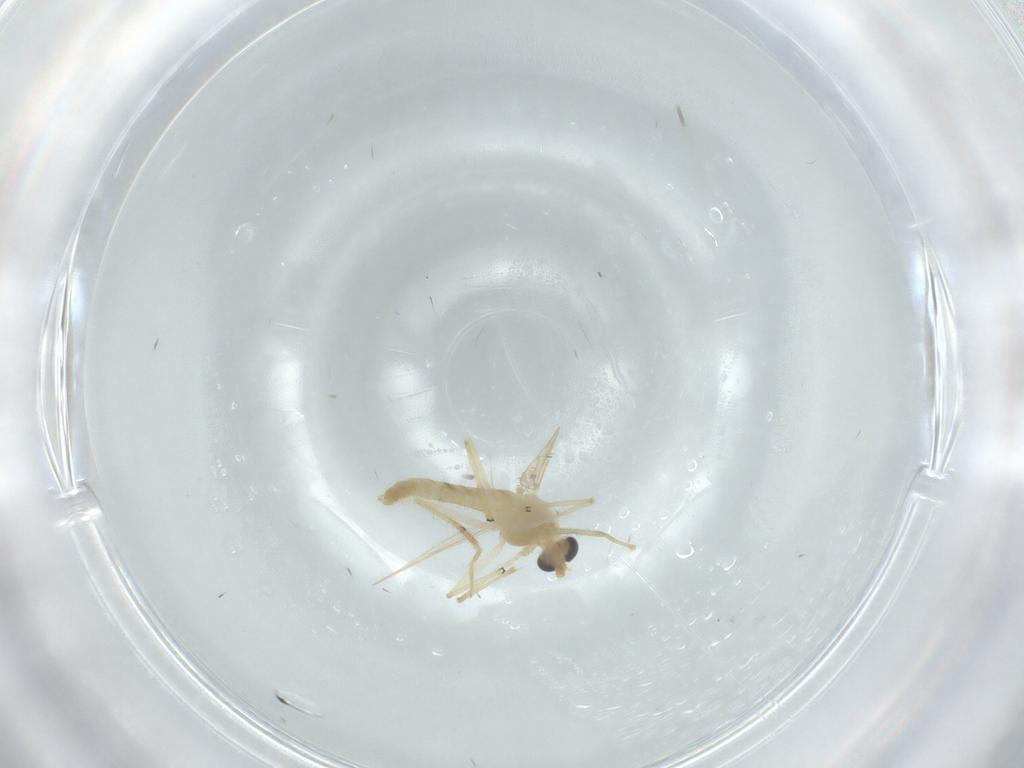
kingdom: Animalia
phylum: Arthropoda
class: Insecta
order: Diptera
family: Chironomidae
